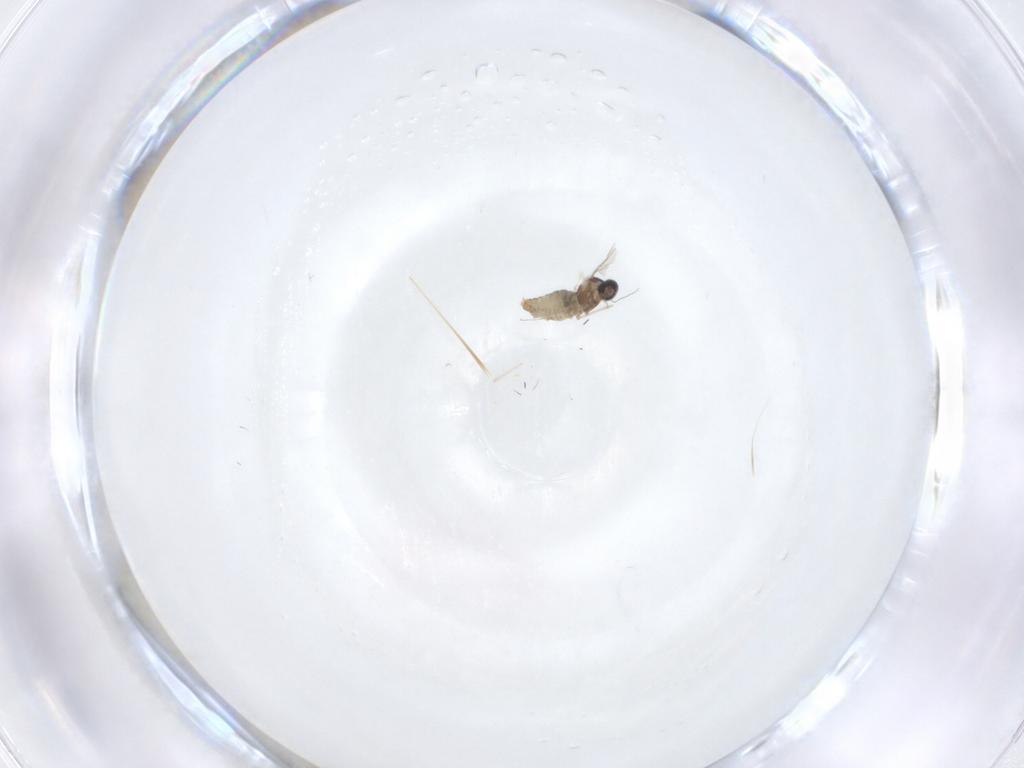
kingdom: Animalia
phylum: Arthropoda
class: Insecta
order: Diptera
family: Cecidomyiidae
